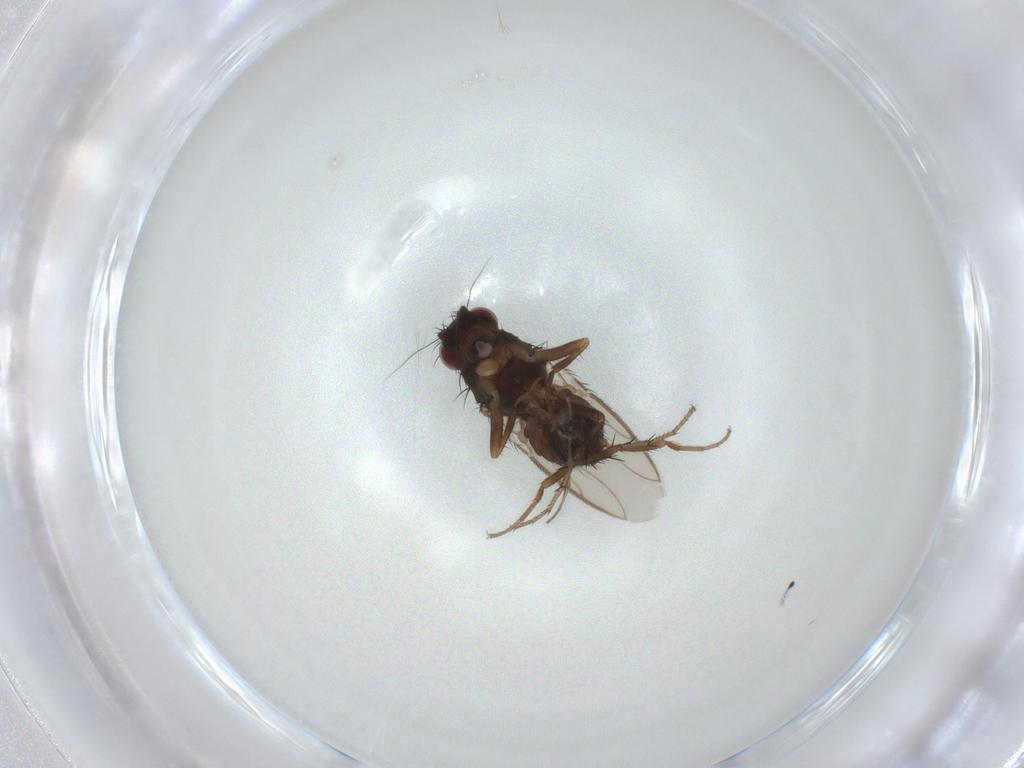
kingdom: Animalia
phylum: Arthropoda
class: Insecta
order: Diptera
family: Sphaeroceridae
